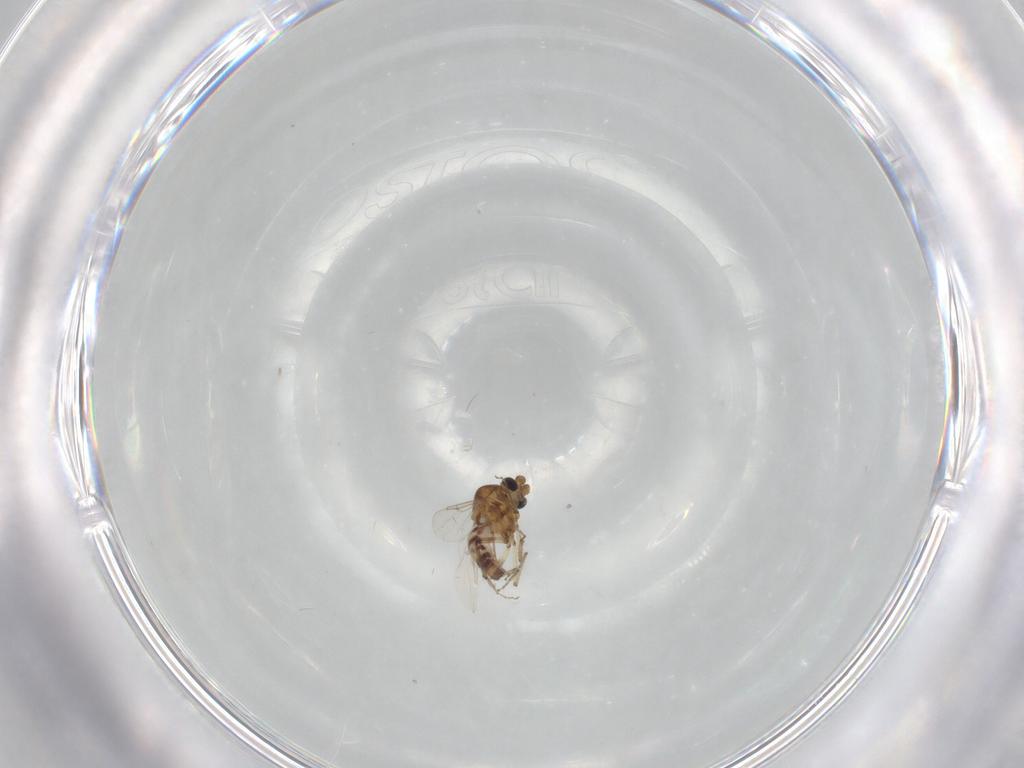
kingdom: Animalia
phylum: Arthropoda
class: Insecta
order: Diptera
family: Ceratopogonidae
